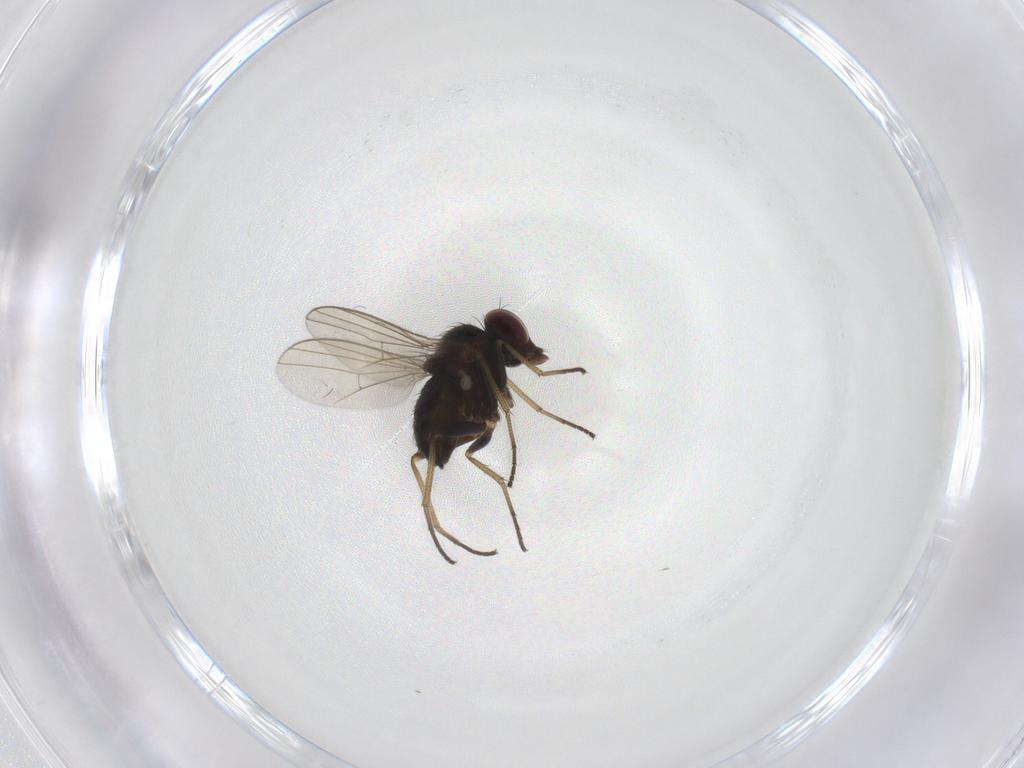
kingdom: Animalia
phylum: Arthropoda
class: Insecta
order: Diptera
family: Dolichopodidae
